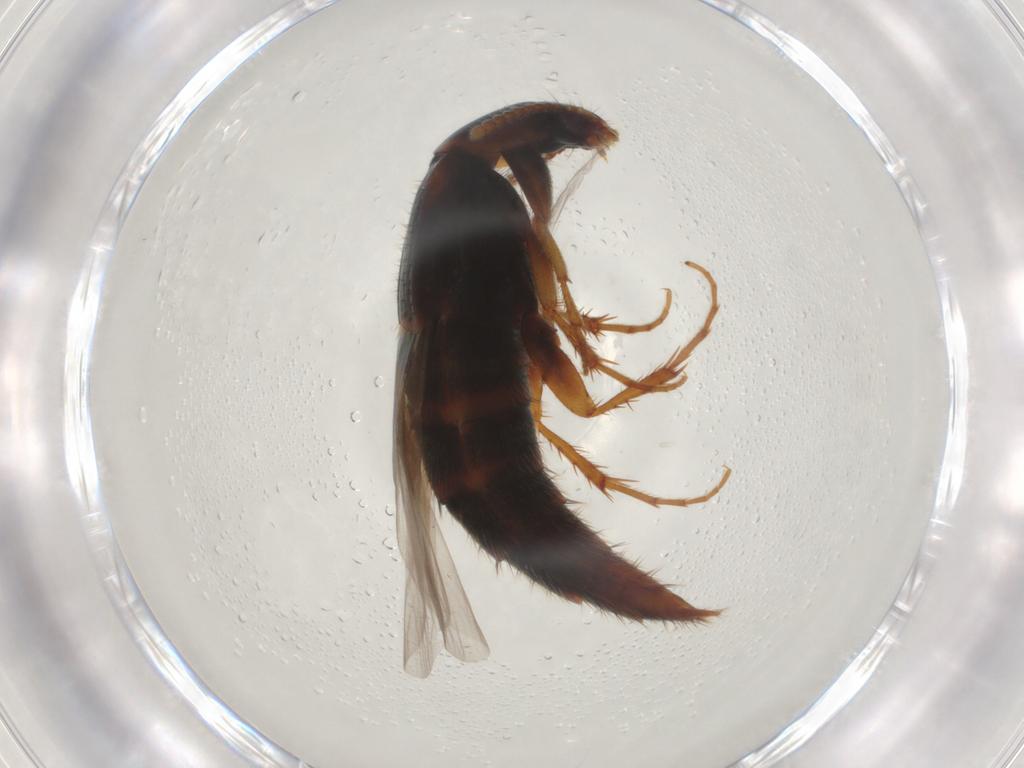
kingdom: Animalia
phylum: Arthropoda
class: Insecta
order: Coleoptera
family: Staphylinidae
